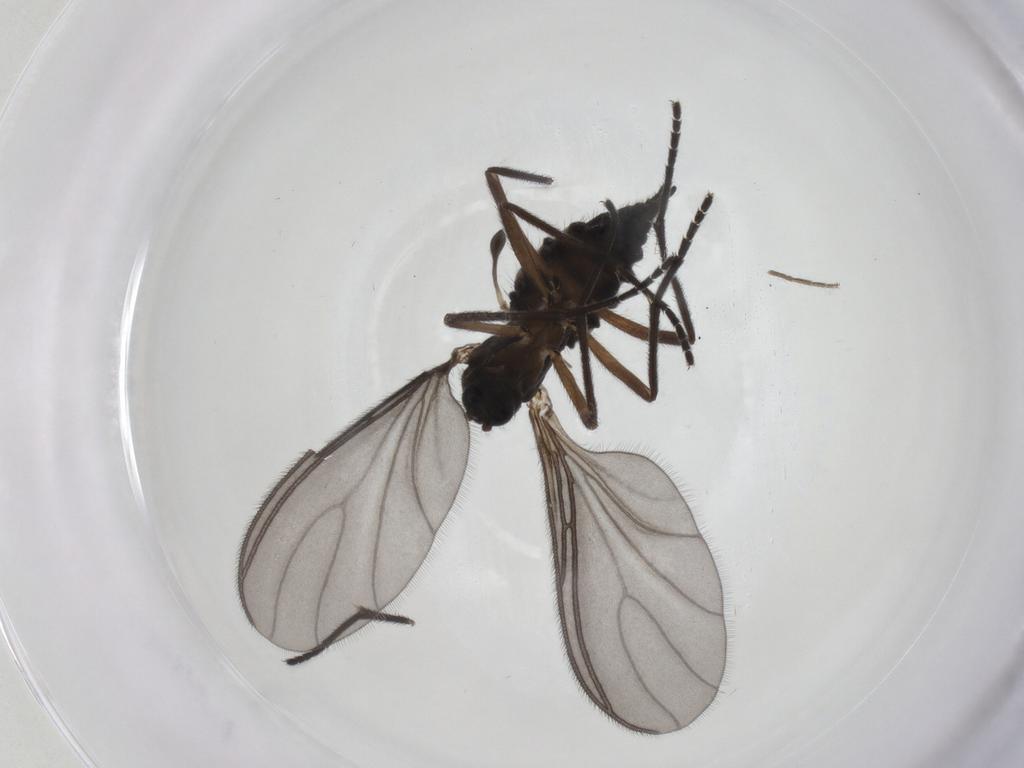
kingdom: Animalia
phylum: Arthropoda
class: Insecta
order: Diptera
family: Sciaridae
